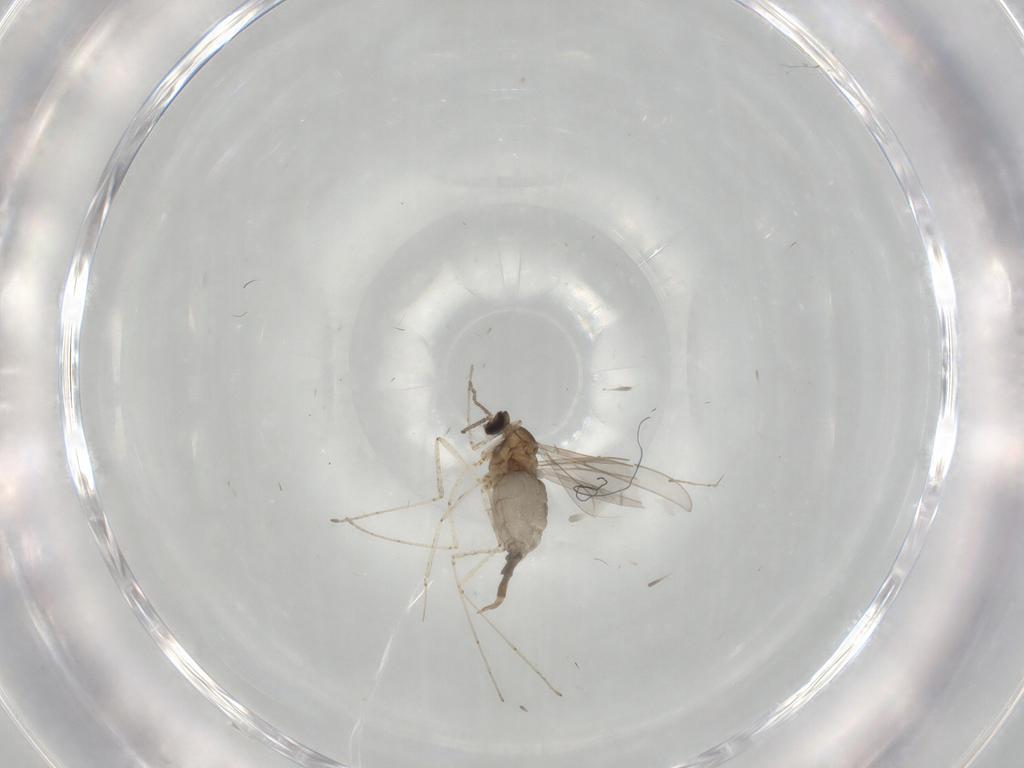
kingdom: Animalia
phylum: Arthropoda
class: Insecta
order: Diptera
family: Cecidomyiidae
